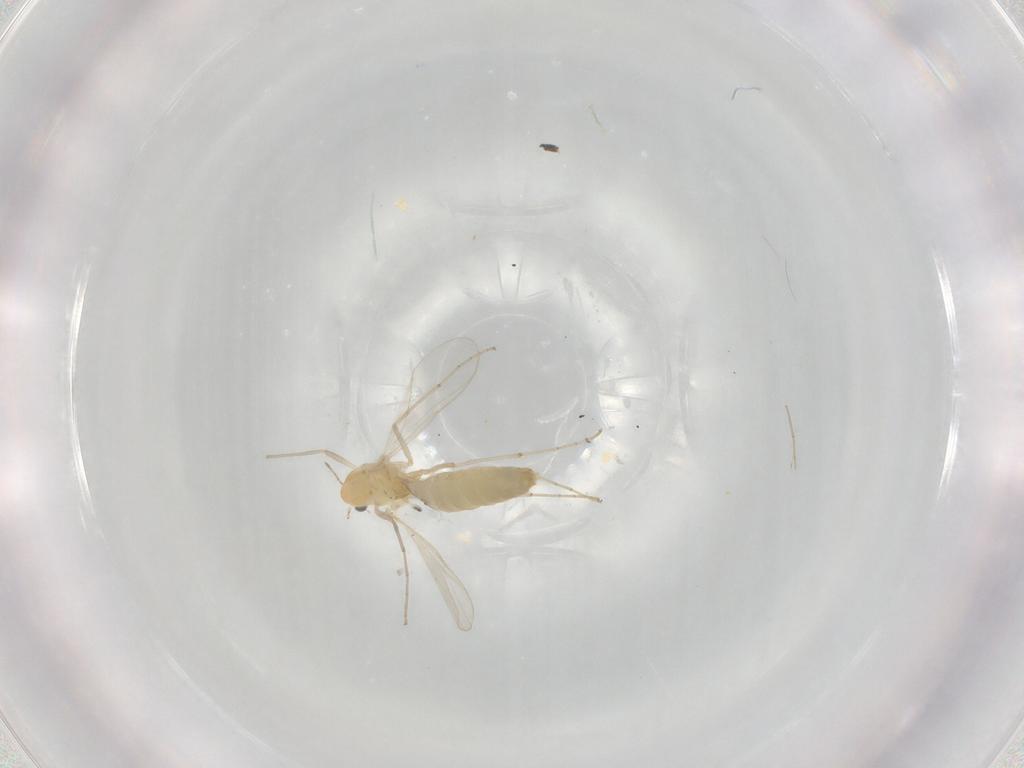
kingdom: Animalia
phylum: Arthropoda
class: Insecta
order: Diptera
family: Chironomidae
